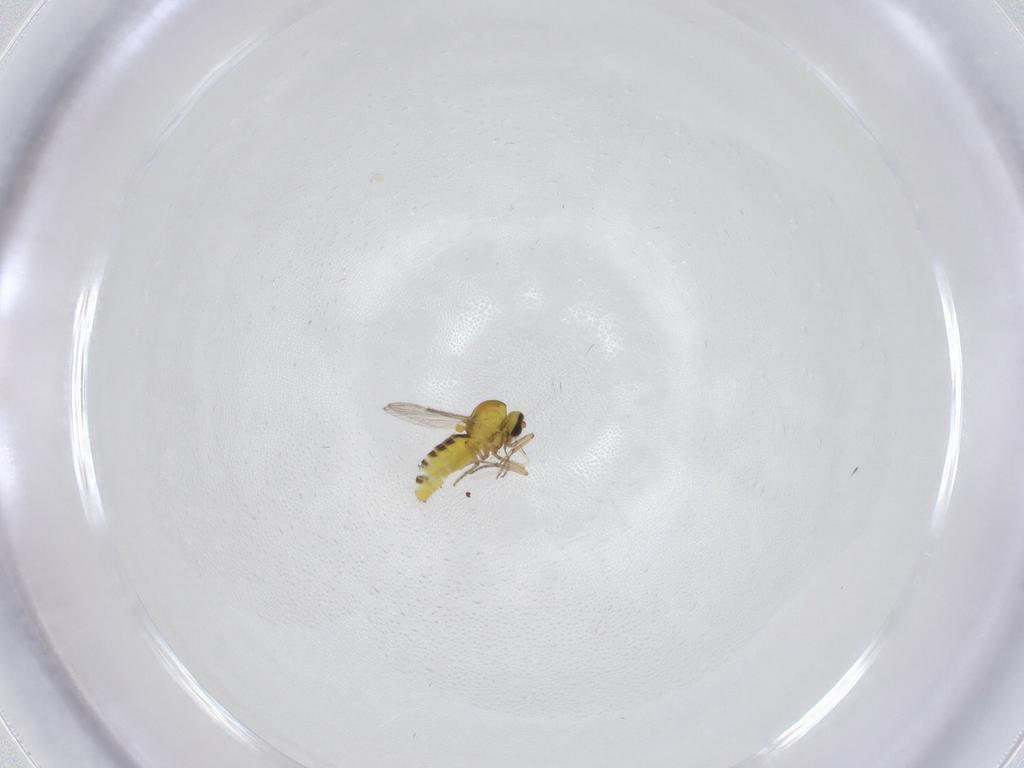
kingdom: Animalia
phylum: Arthropoda
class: Insecta
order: Diptera
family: Ceratopogonidae
